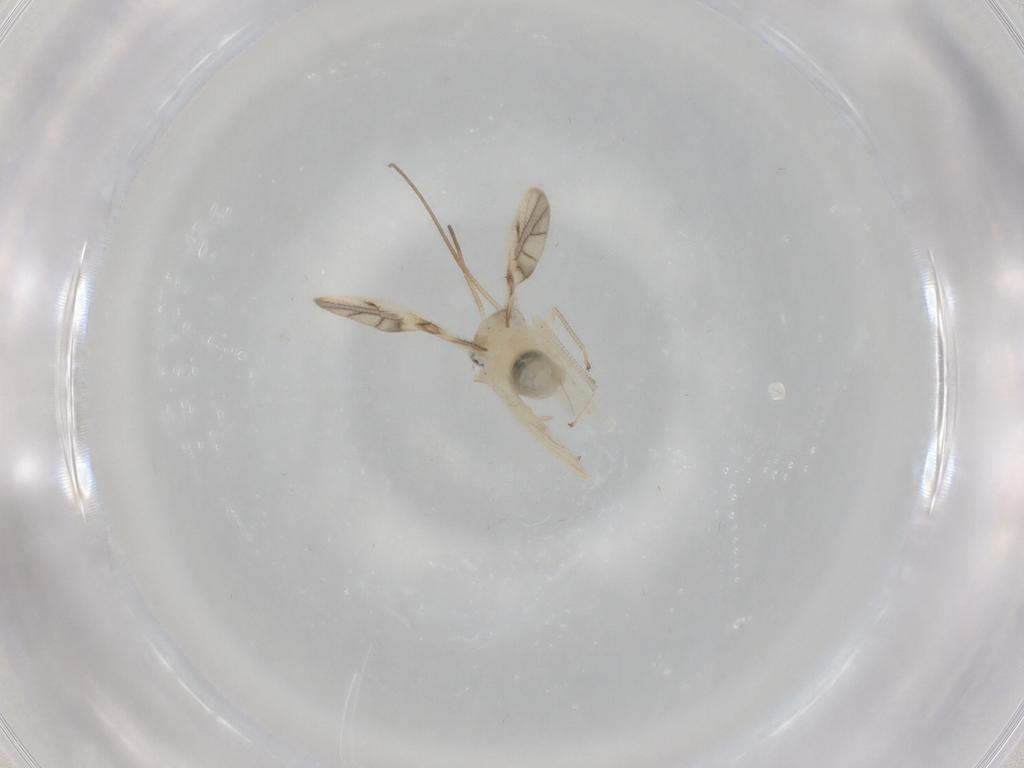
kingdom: Animalia
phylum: Arthropoda
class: Insecta
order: Psocodea
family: Caeciliusidae
